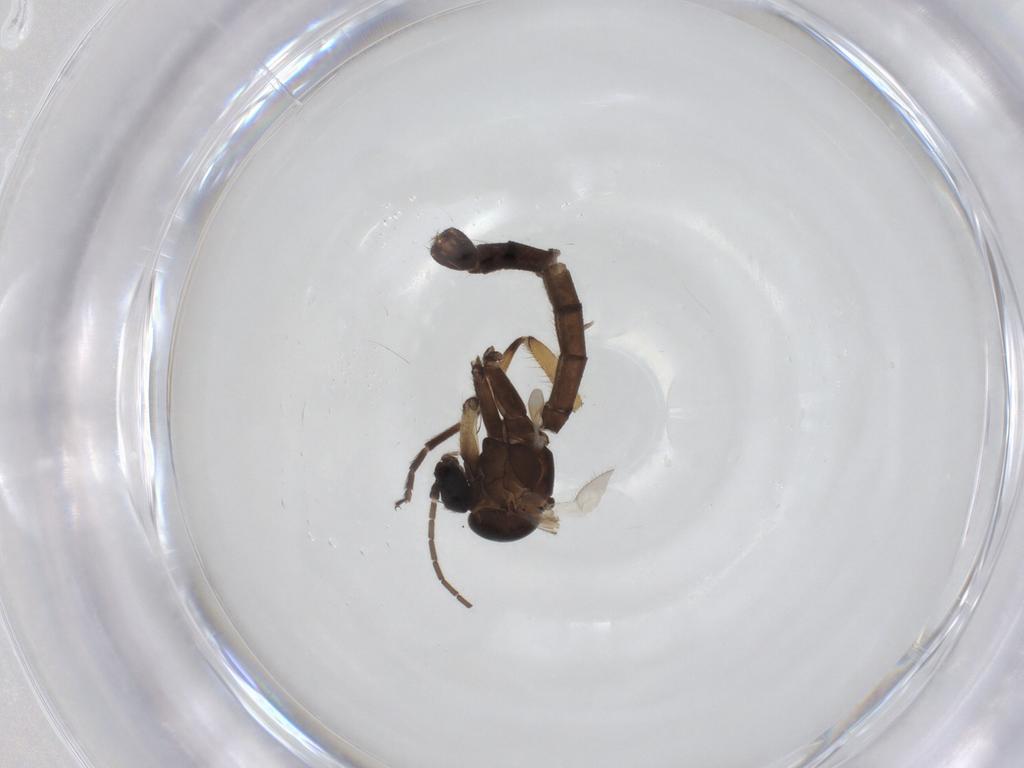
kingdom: Animalia
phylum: Arthropoda
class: Insecta
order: Diptera
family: Mycetophilidae
